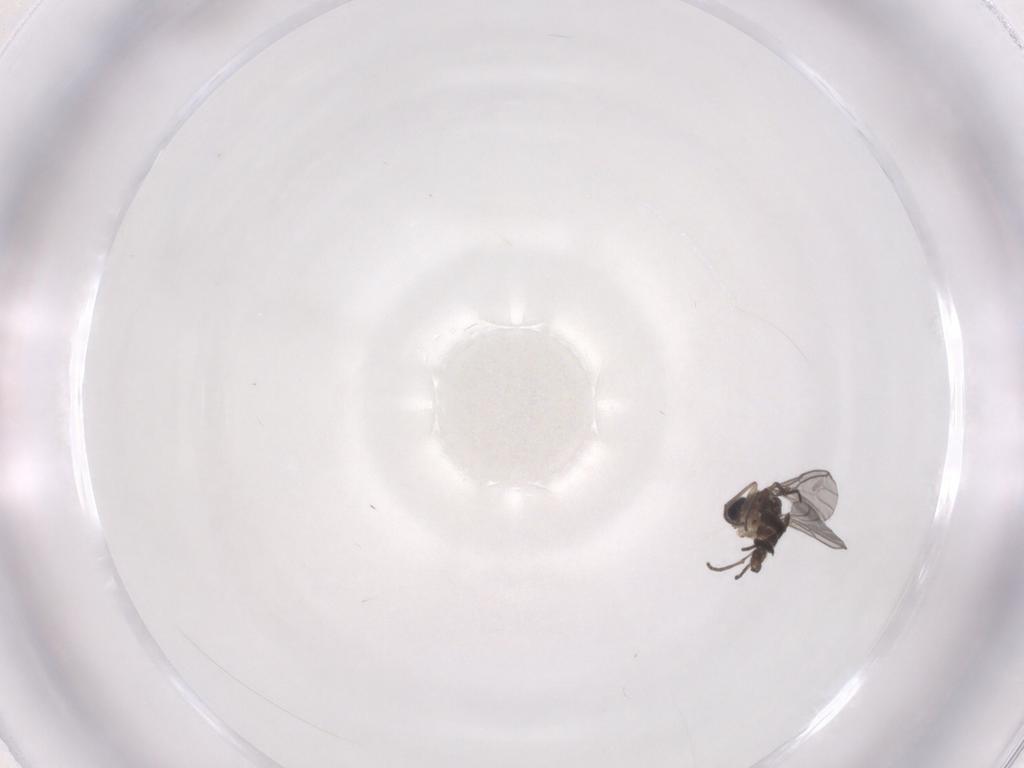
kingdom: Animalia
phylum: Arthropoda
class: Insecta
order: Diptera
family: Sciaridae
